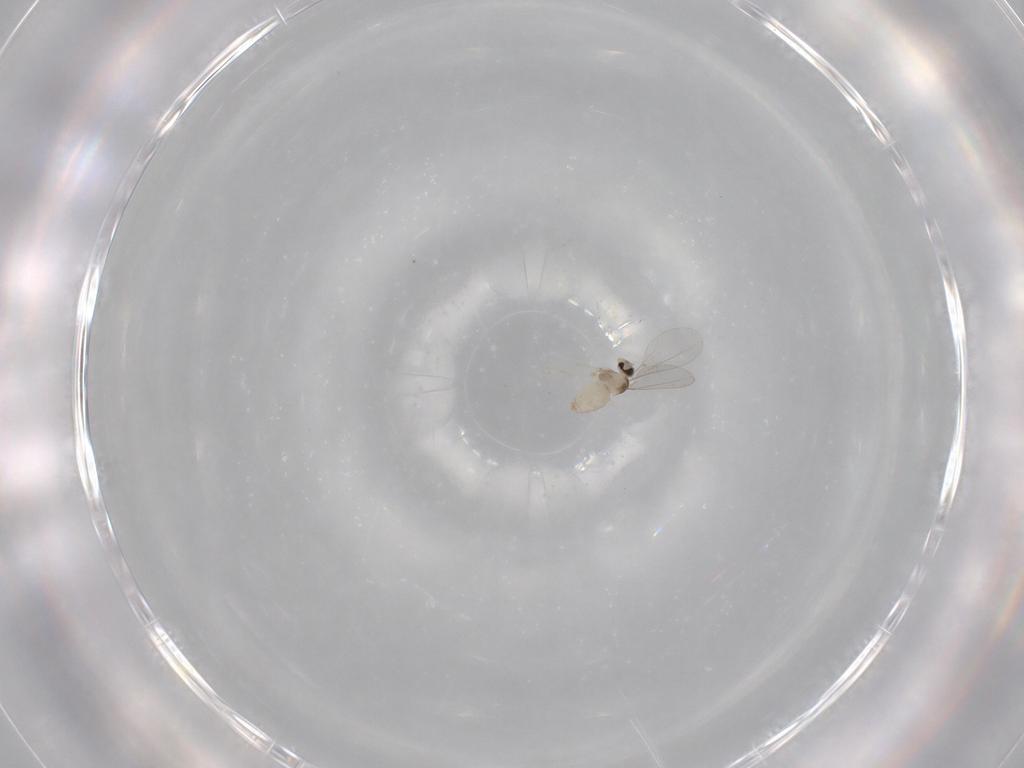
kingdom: Animalia
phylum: Arthropoda
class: Insecta
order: Diptera
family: Cecidomyiidae
